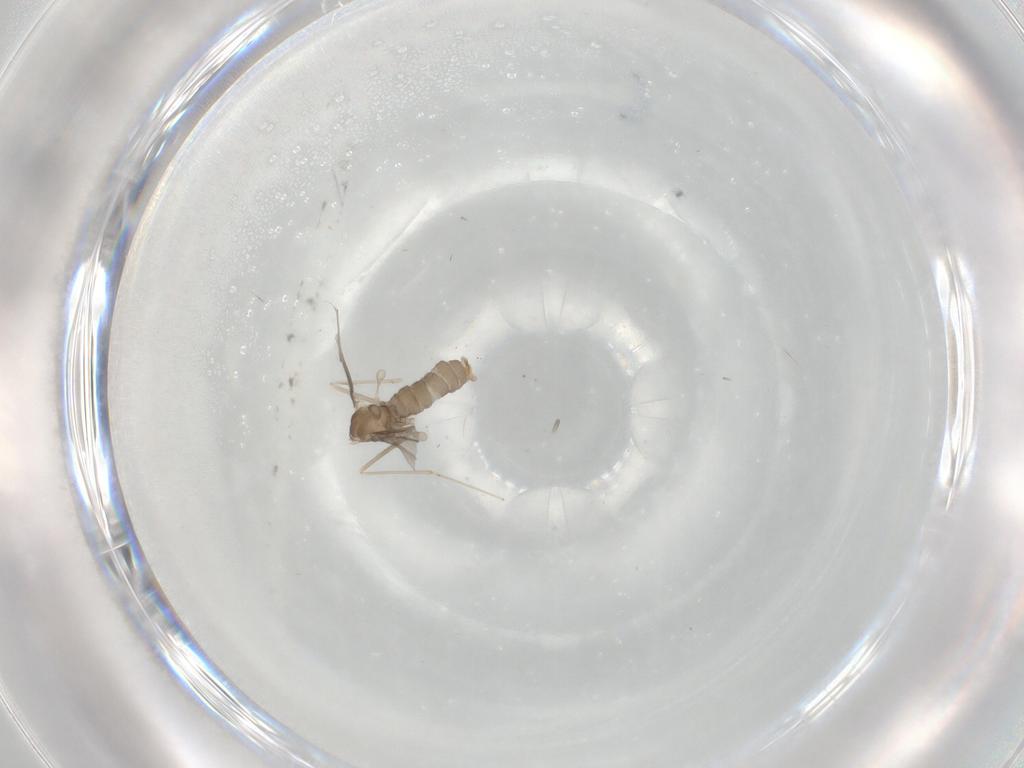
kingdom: Animalia
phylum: Arthropoda
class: Insecta
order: Diptera
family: Cecidomyiidae
